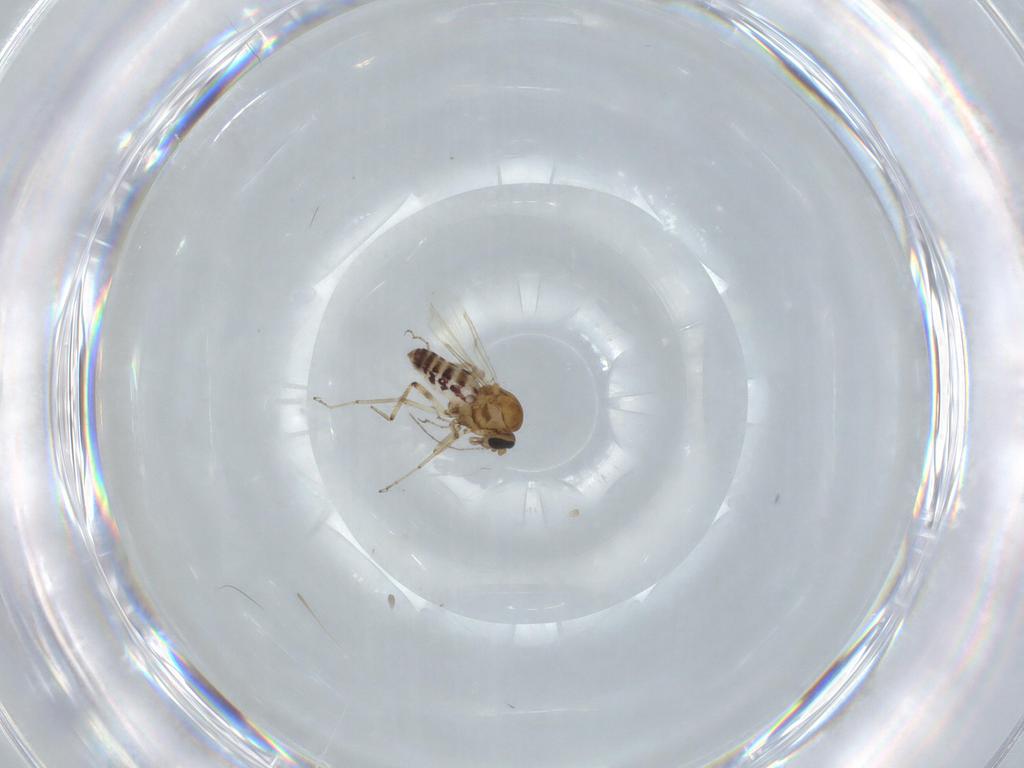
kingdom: Animalia
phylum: Arthropoda
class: Insecta
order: Diptera
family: Ceratopogonidae
